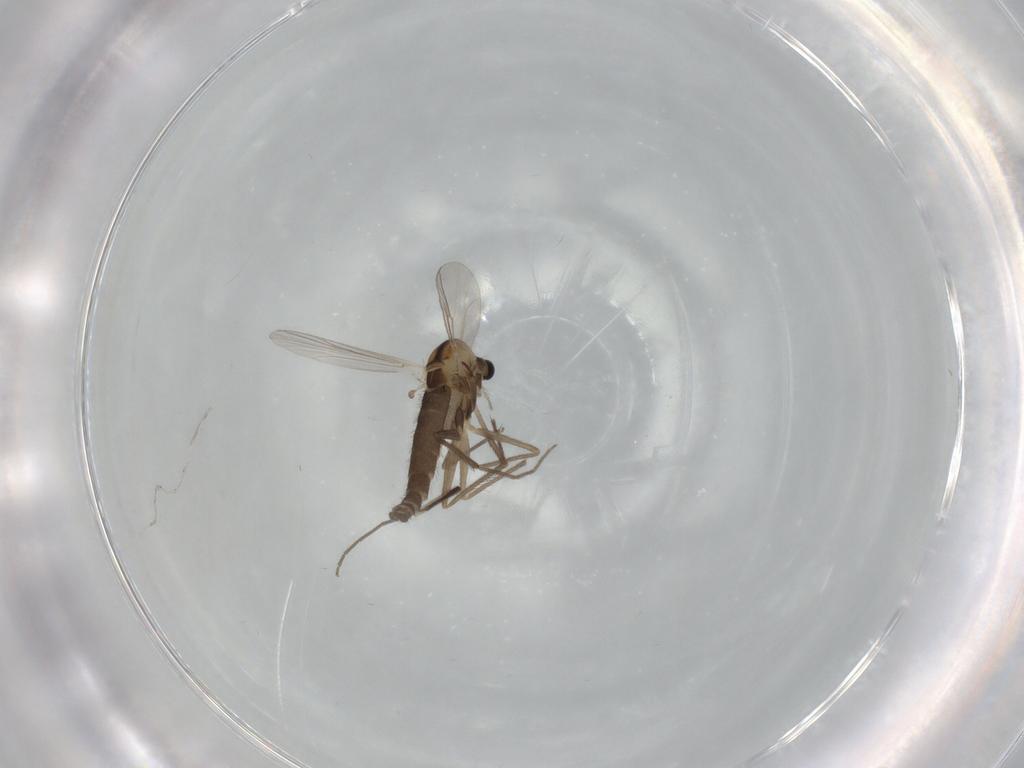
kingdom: Animalia
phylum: Arthropoda
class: Insecta
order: Diptera
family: Chironomidae
